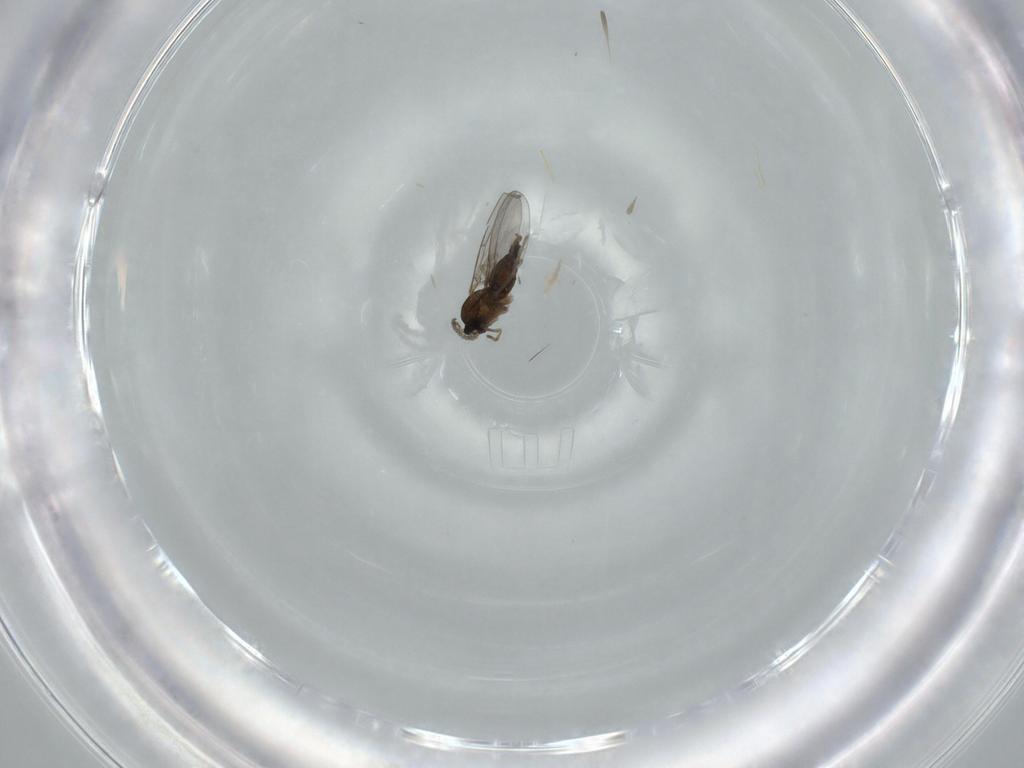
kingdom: Animalia
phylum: Arthropoda
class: Insecta
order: Diptera
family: Cecidomyiidae
